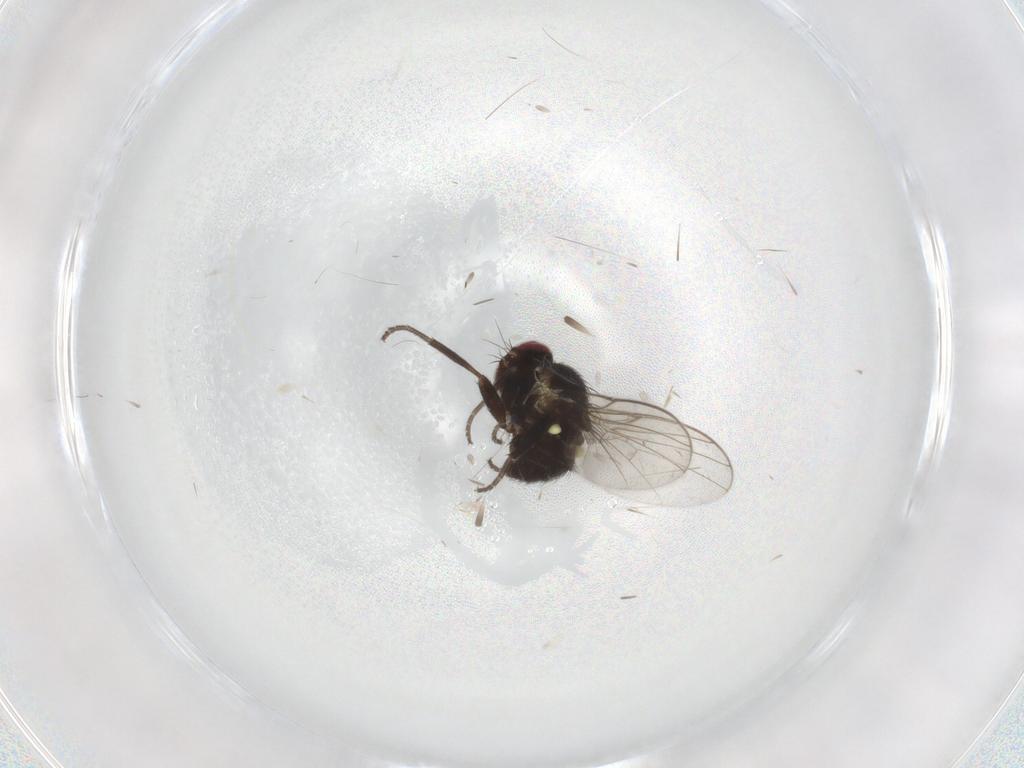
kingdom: Animalia
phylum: Arthropoda
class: Insecta
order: Diptera
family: Agromyzidae
